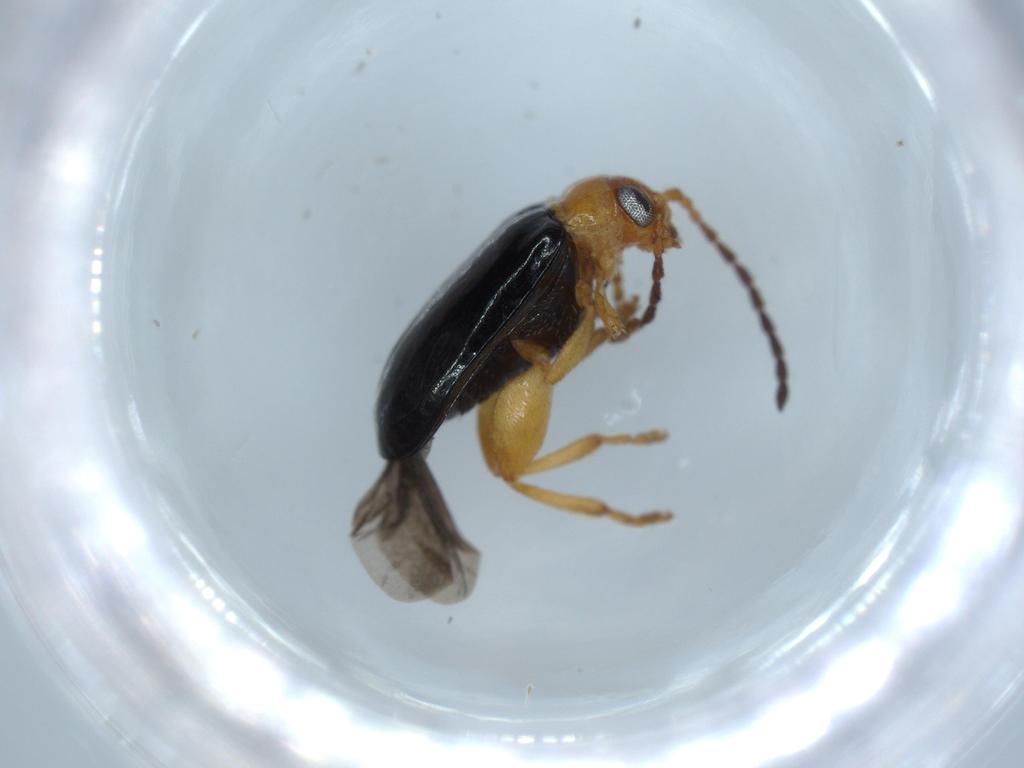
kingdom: Animalia
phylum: Arthropoda
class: Insecta
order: Coleoptera
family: Chrysomelidae
